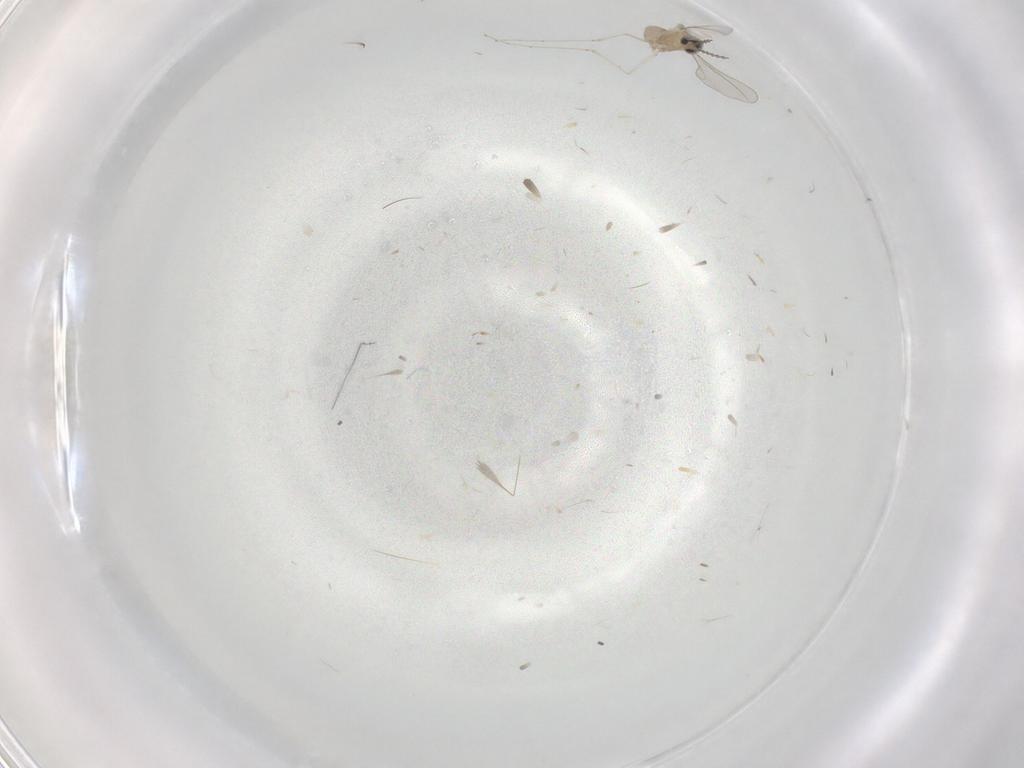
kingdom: Animalia
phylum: Arthropoda
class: Insecta
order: Diptera
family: Cecidomyiidae
